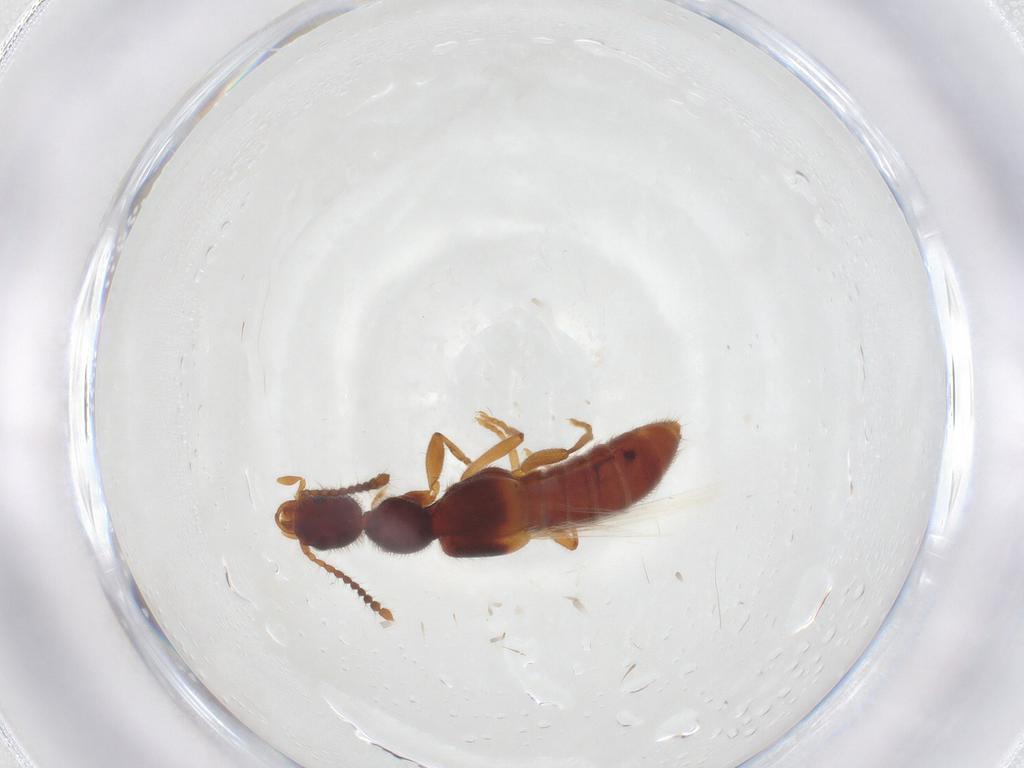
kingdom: Animalia
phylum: Arthropoda
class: Insecta
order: Coleoptera
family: Staphylinidae
